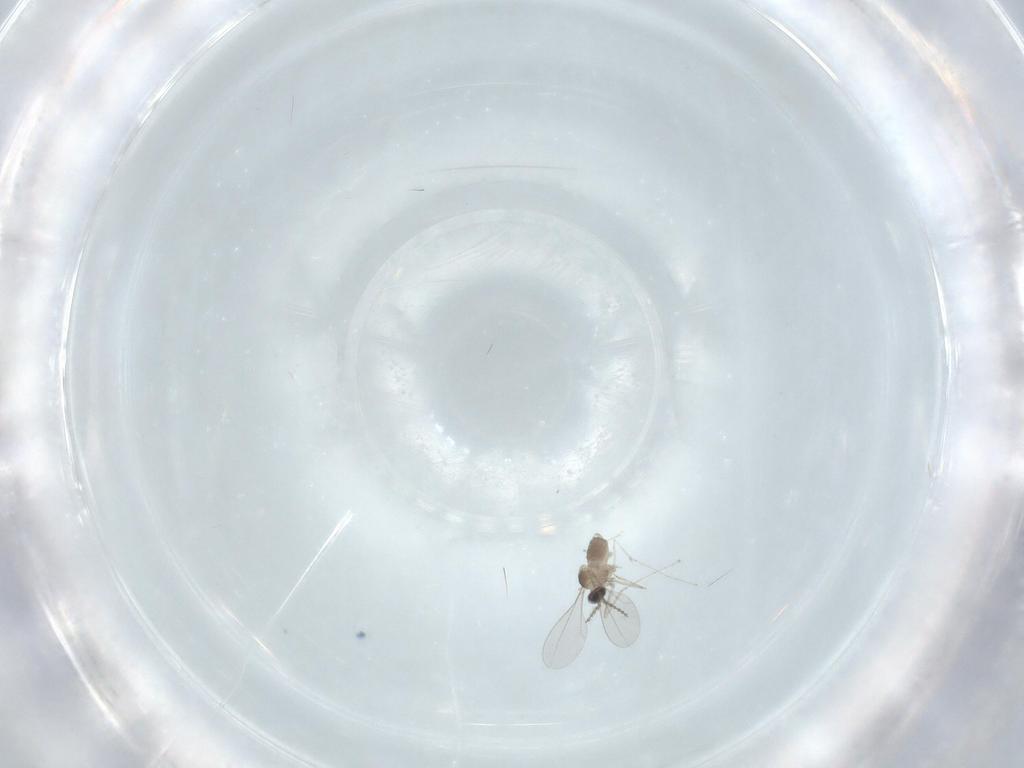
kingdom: Animalia
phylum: Arthropoda
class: Insecta
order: Diptera
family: Cecidomyiidae
